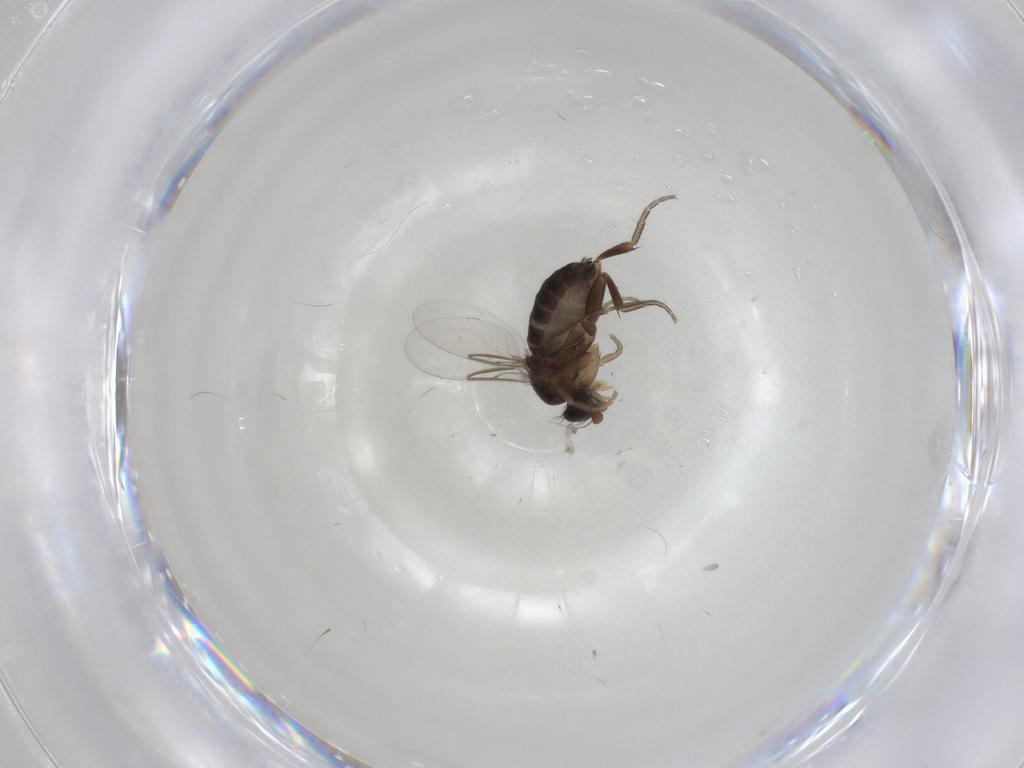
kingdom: Animalia
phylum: Arthropoda
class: Insecta
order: Diptera
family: Phoridae
